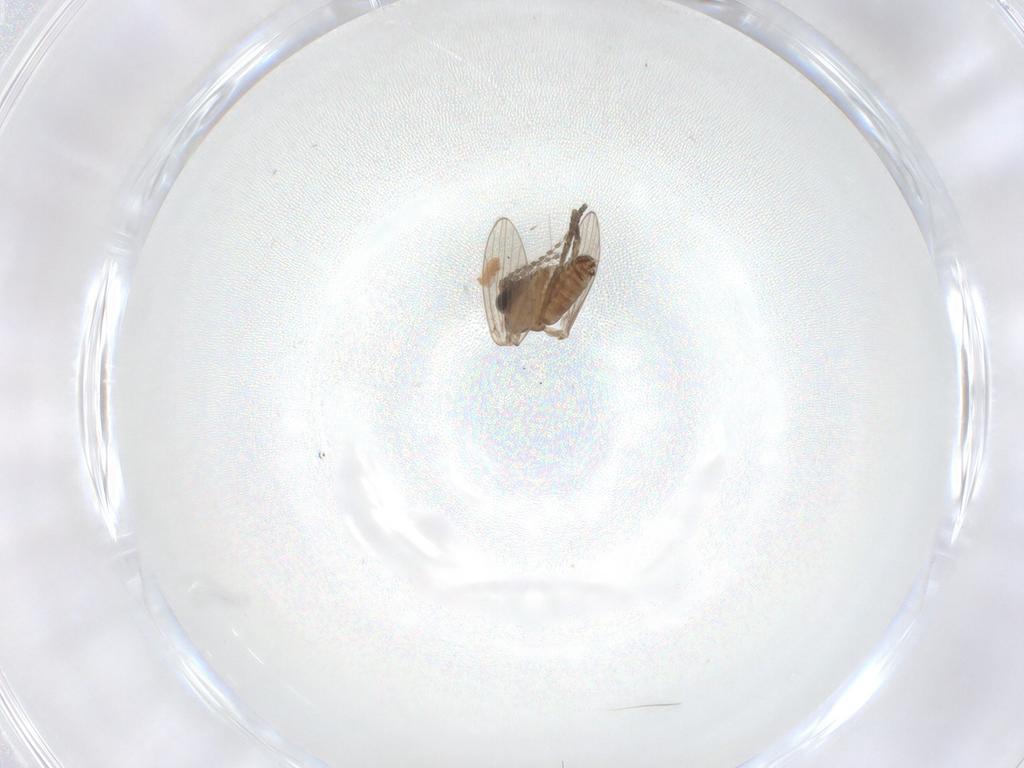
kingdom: Animalia
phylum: Arthropoda
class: Insecta
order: Diptera
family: Psychodidae
